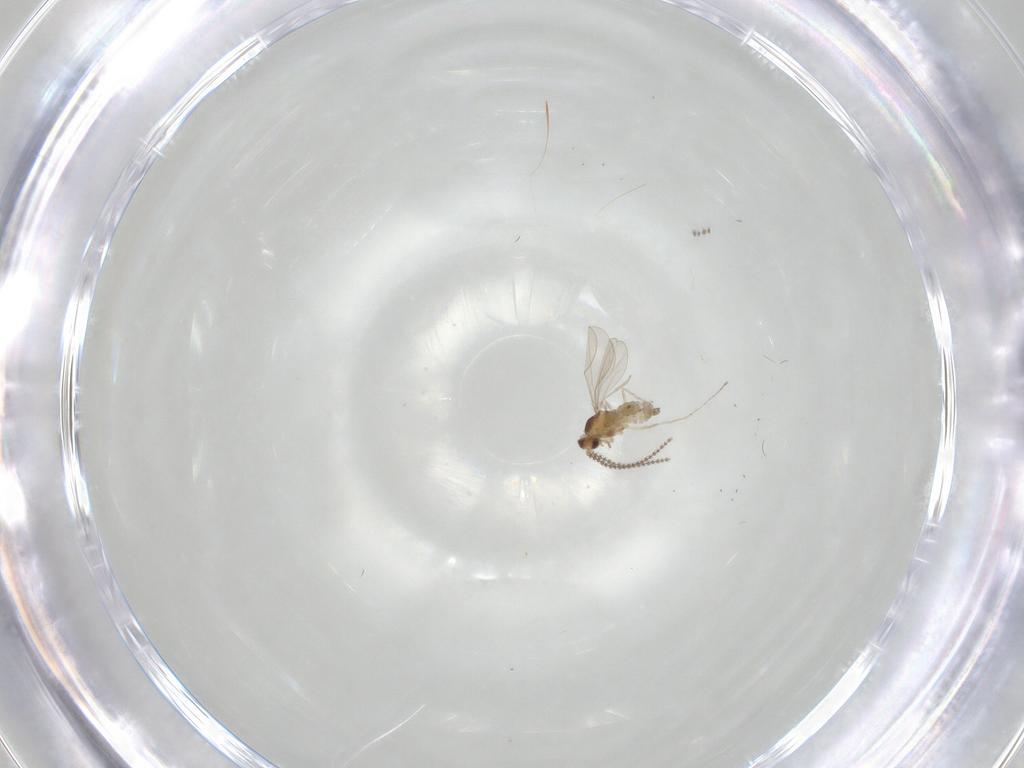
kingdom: Animalia
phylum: Arthropoda
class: Insecta
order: Diptera
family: Cecidomyiidae
